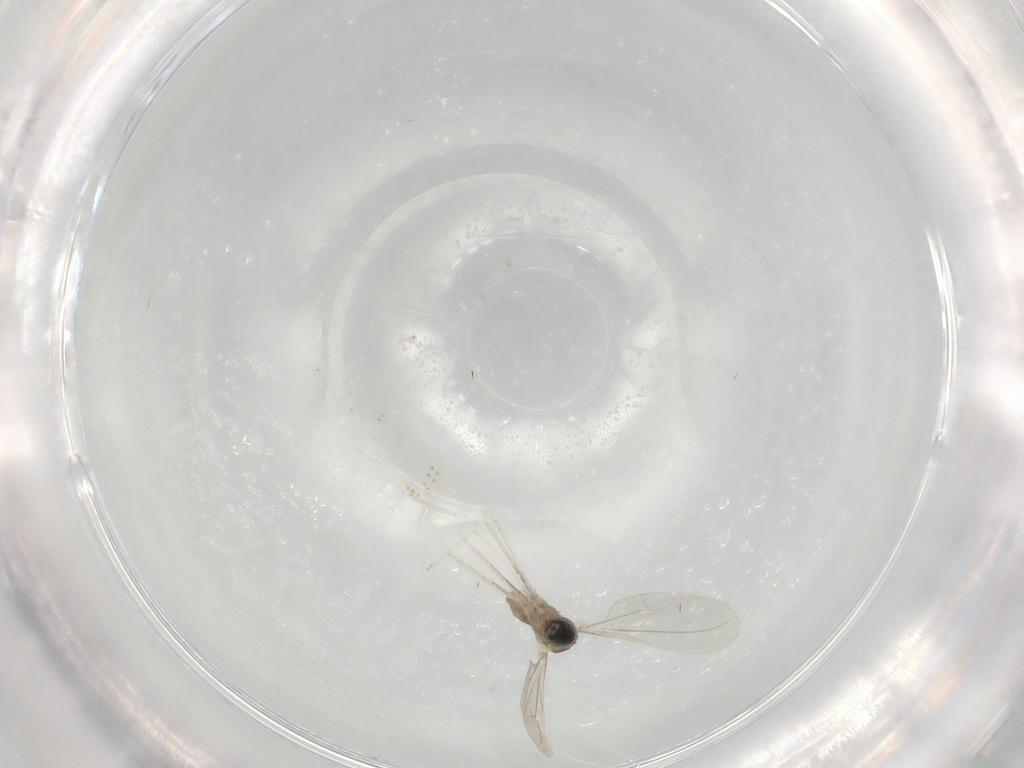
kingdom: Animalia
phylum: Arthropoda
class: Insecta
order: Diptera
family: Cecidomyiidae
